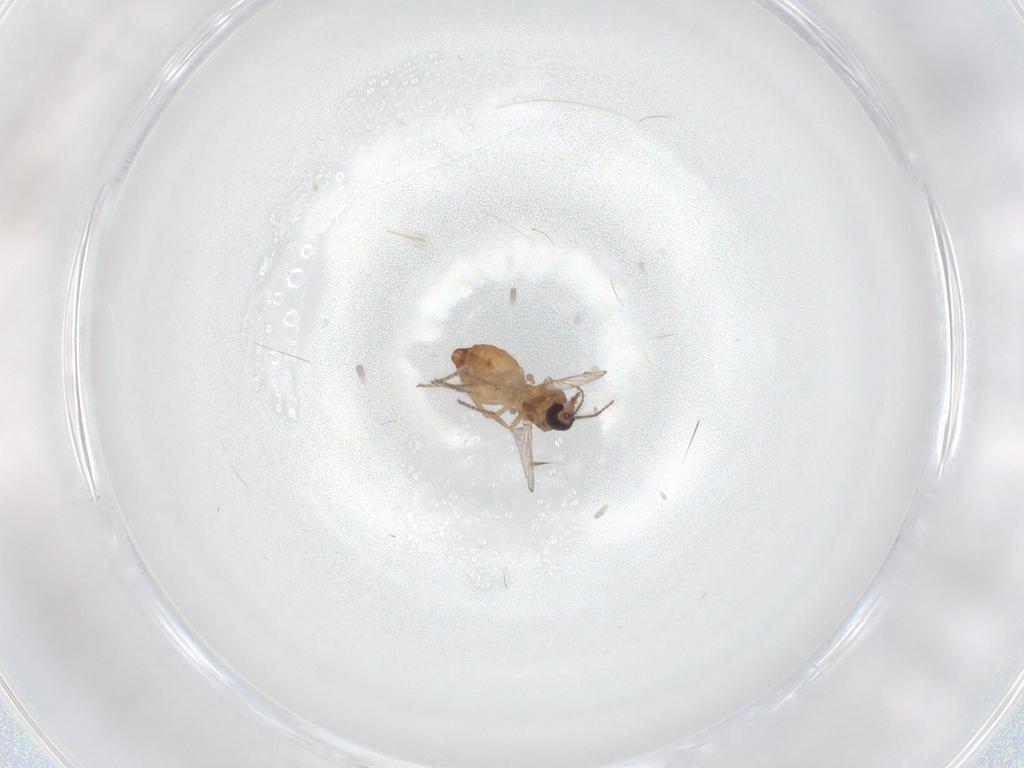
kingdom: Animalia
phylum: Arthropoda
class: Insecta
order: Diptera
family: Ceratopogonidae
